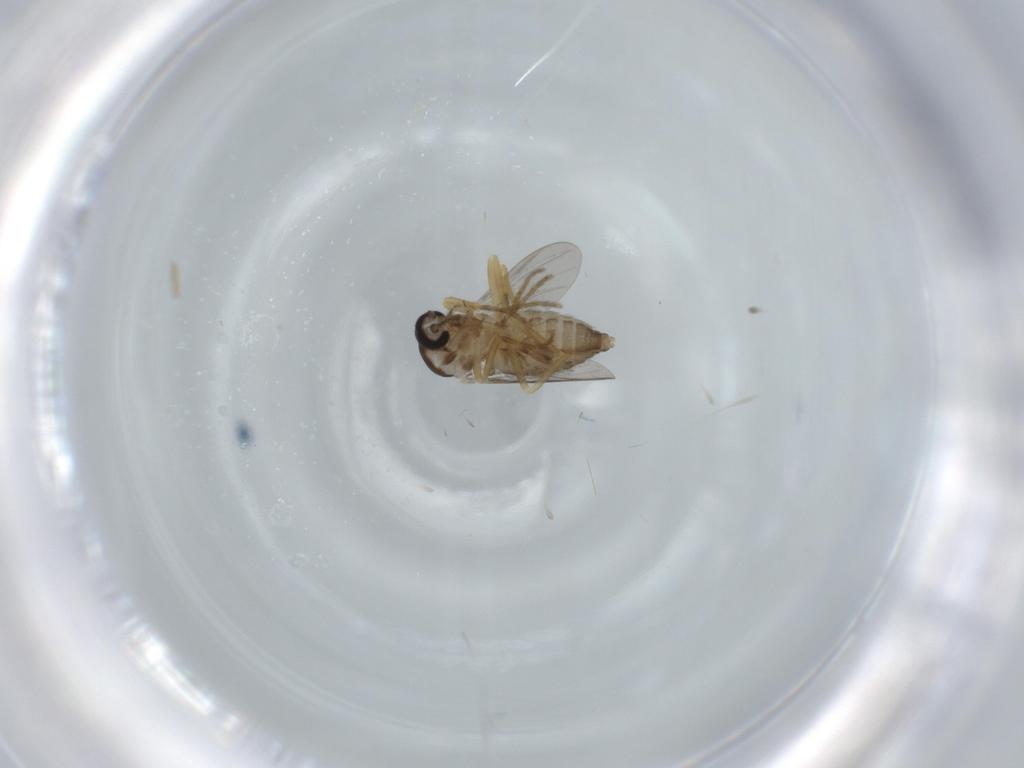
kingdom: Animalia
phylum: Arthropoda
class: Insecta
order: Diptera
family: Ceratopogonidae
